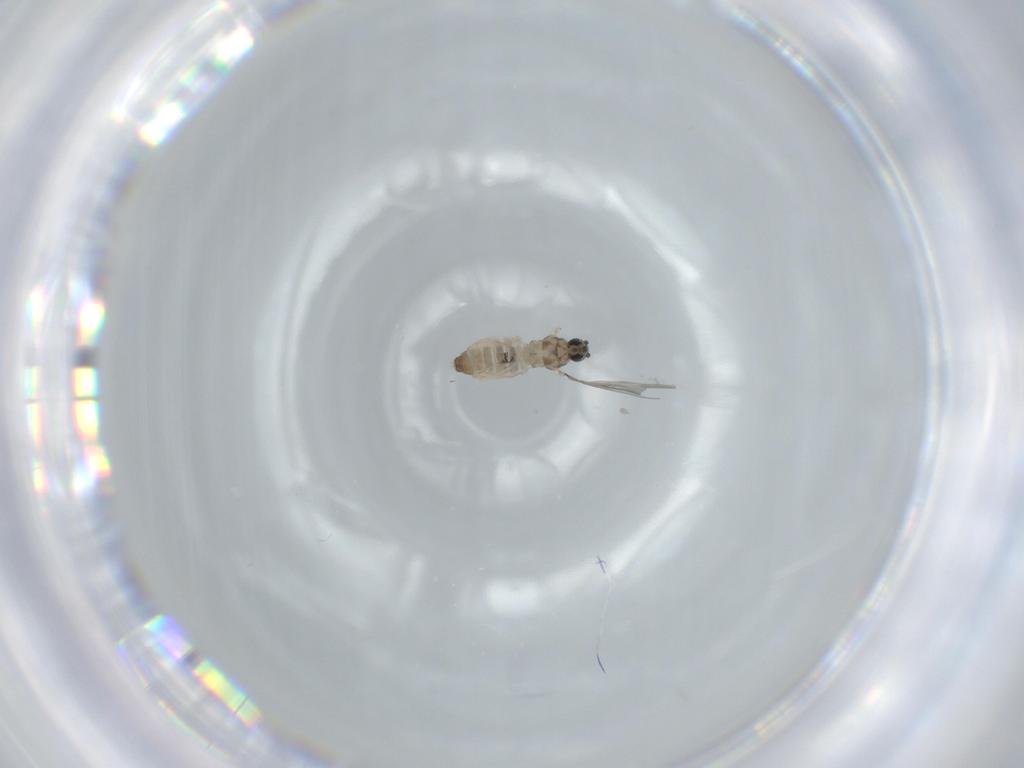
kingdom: Animalia
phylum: Arthropoda
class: Insecta
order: Diptera
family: Cecidomyiidae
